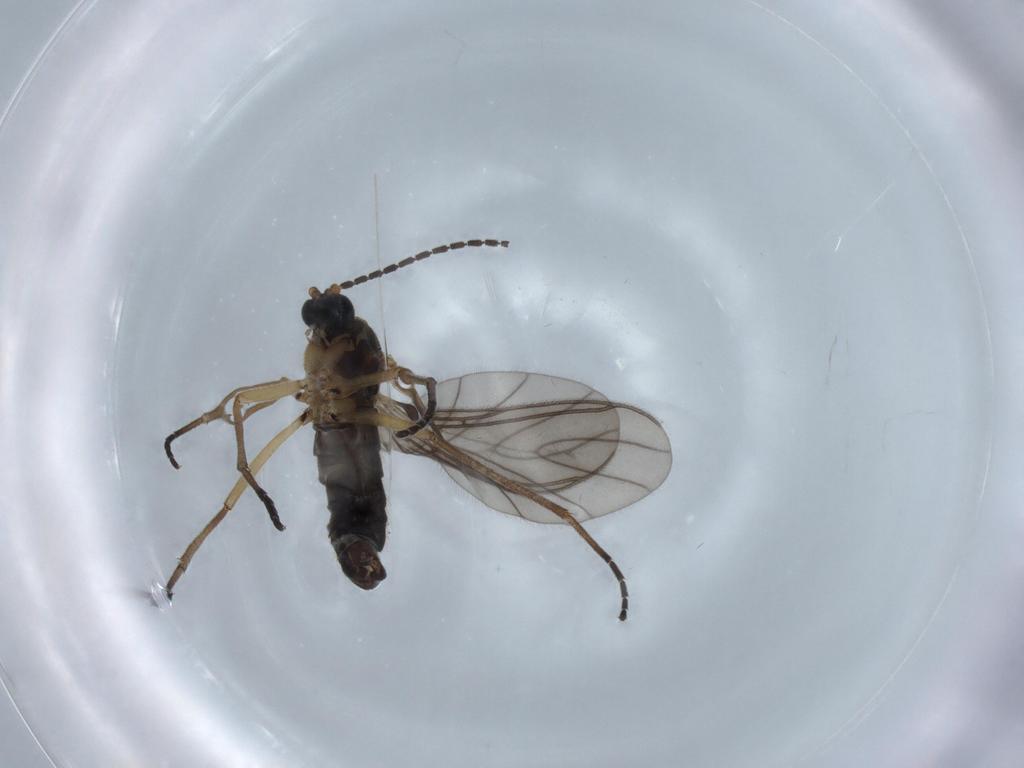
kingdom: Animalia
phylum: Arthropoda
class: Insecta
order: Diptera
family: Sciaridae
